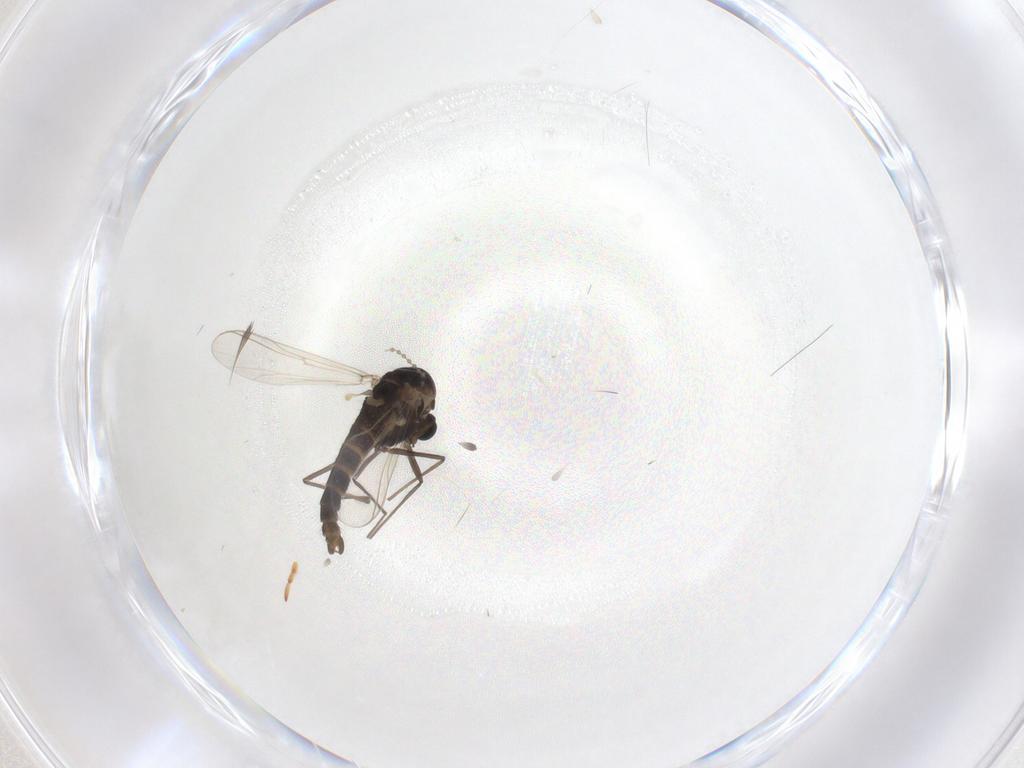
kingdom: Animalia
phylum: Arthropoda
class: Insecta
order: Diptera
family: Chironomidae
